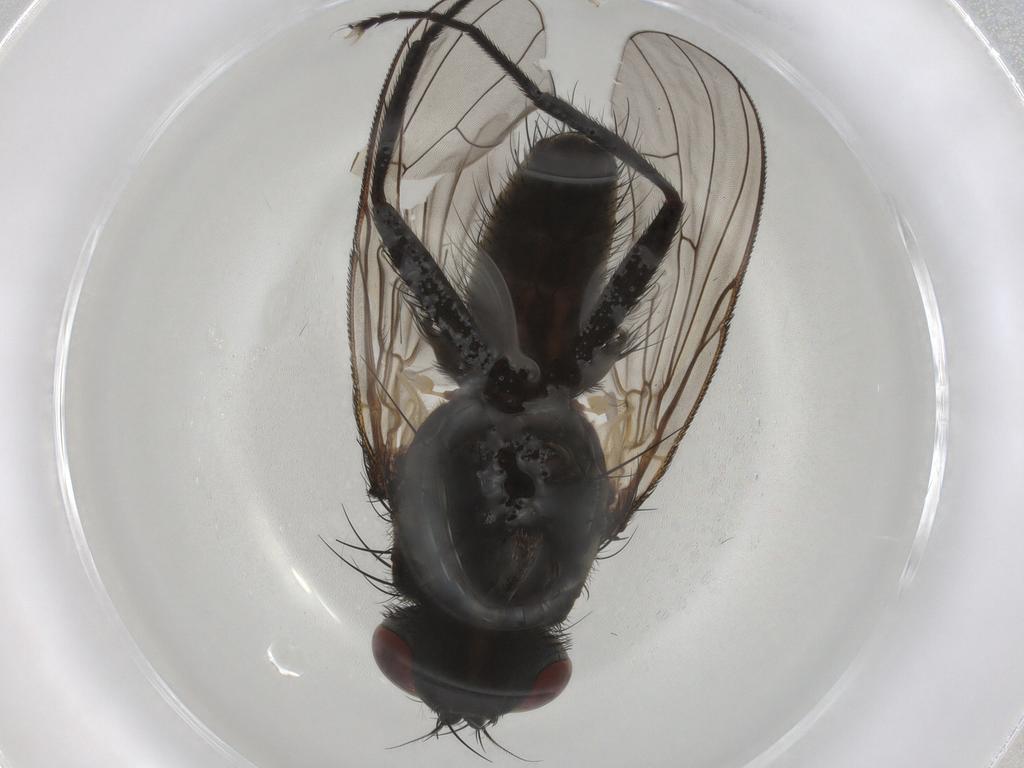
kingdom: Animalia
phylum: Arthropoda
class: Insecta
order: Diptera
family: Muscidae
